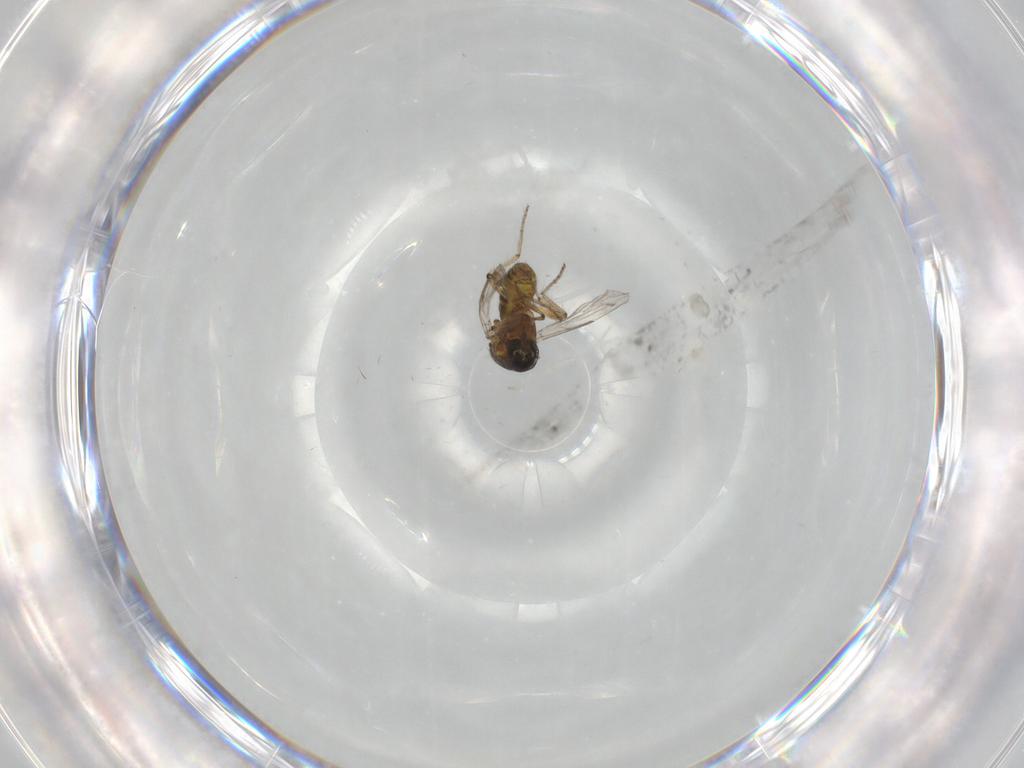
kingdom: Animalia
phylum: Arthropoda
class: Insecta
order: Diptera
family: Ceratopogonidae
